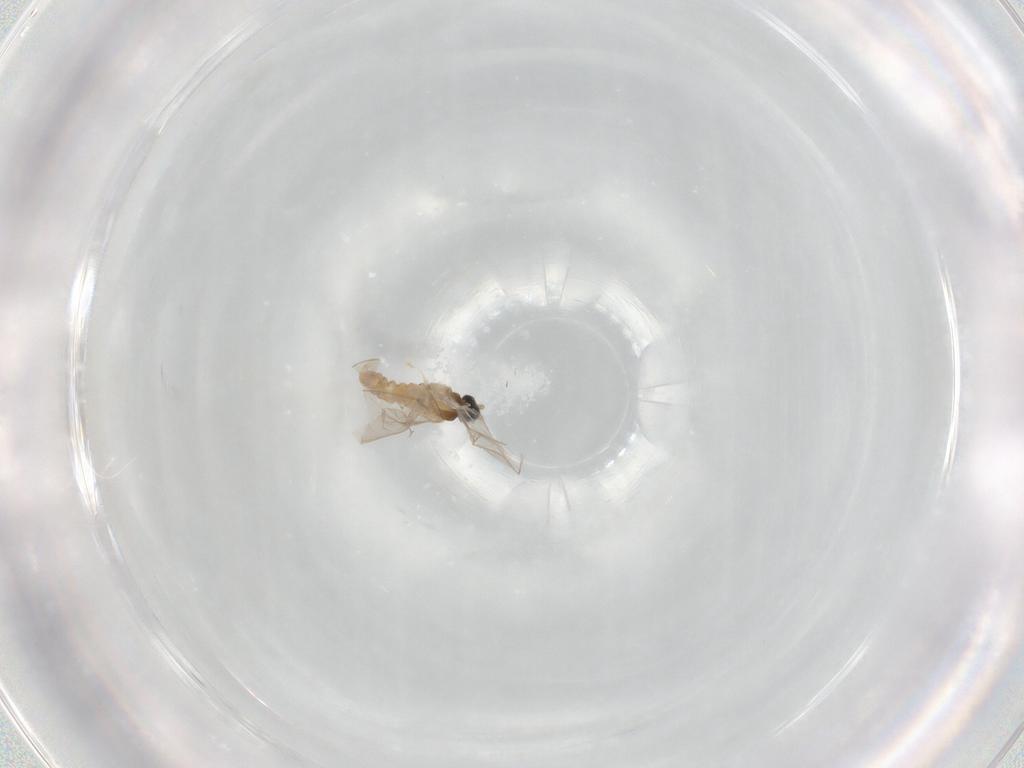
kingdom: Animalia
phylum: Arthropoda
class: Insecta
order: Diptera
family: Cecidomyiidae
